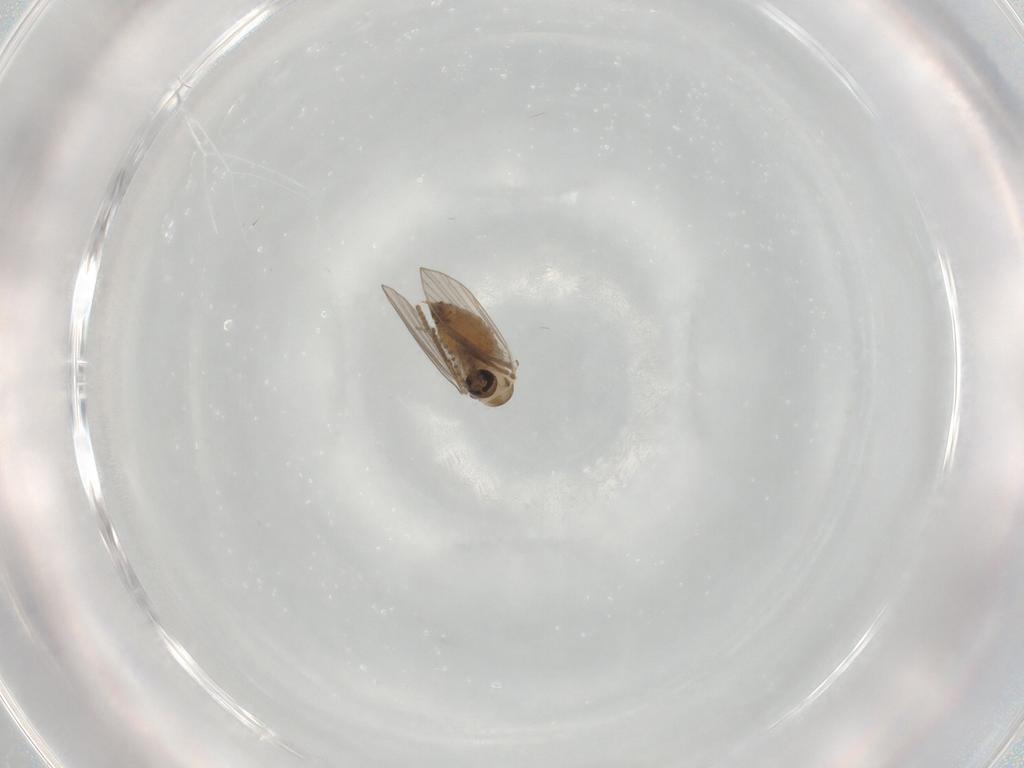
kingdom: Animalia
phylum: Arthropoda
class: Insecta
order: Diptera
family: Psychodidae
